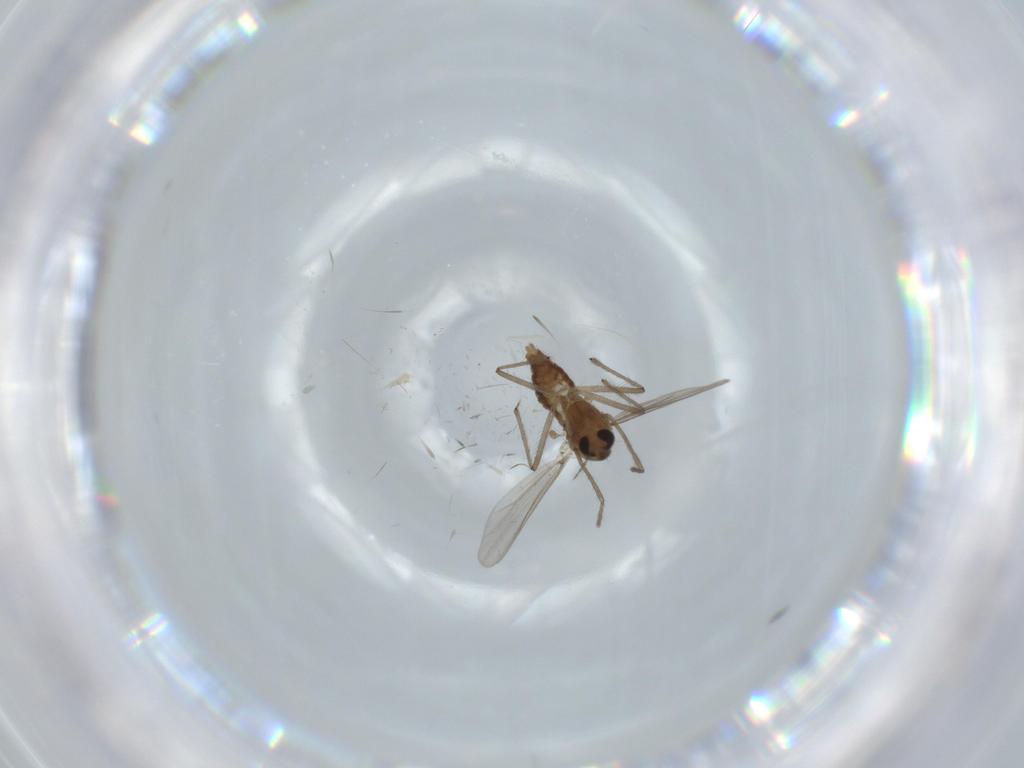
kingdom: Animalia
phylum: Arthropoda
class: Insecta
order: Diptera
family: Chironomidae
